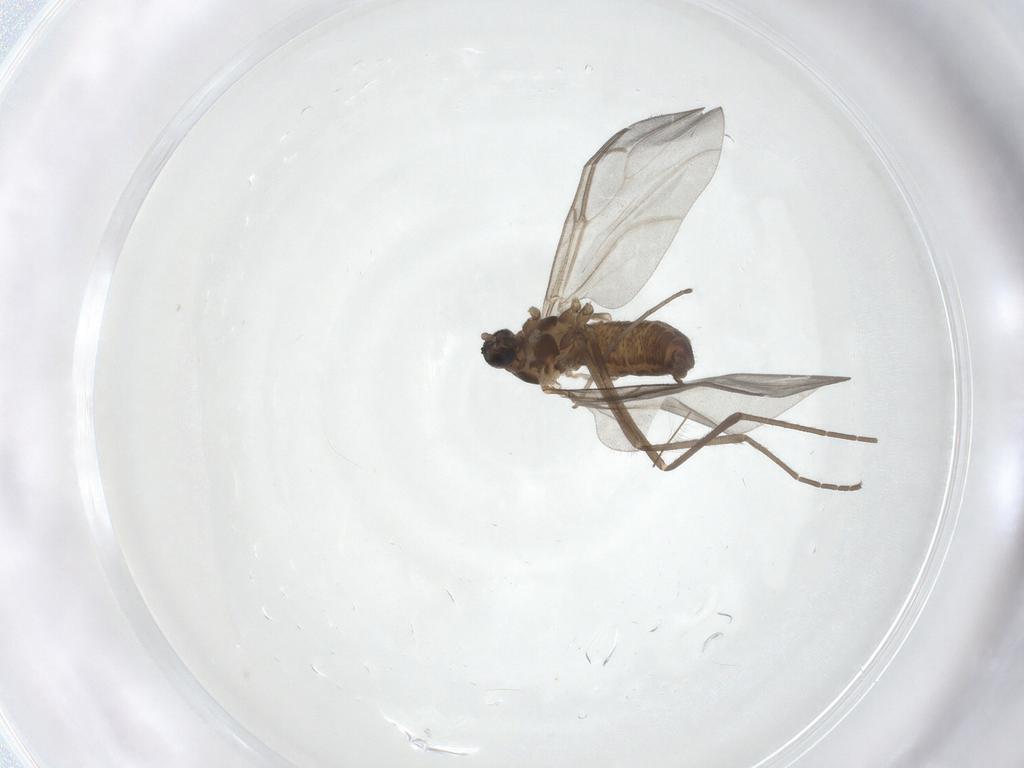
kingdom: Animalia
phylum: Arthropoda
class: Insecta
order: Diptera
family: Cecidomyiidae
